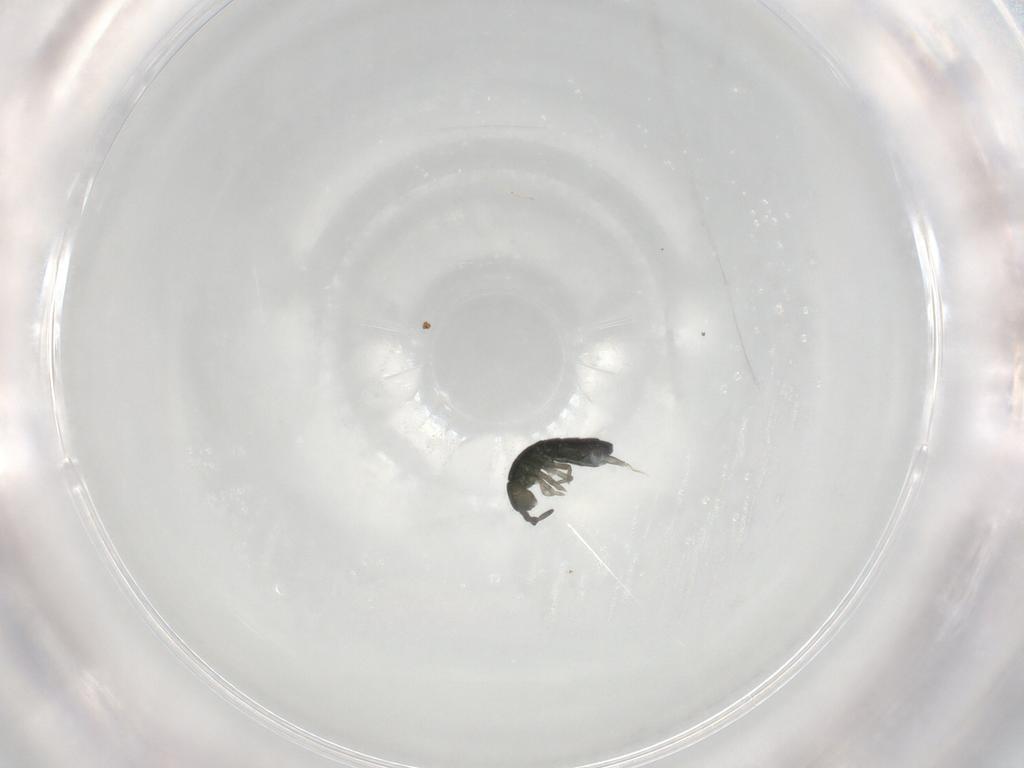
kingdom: Animalia
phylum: Arthropoda
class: Collembola
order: Entomobryomorpha
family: Isotomidae
